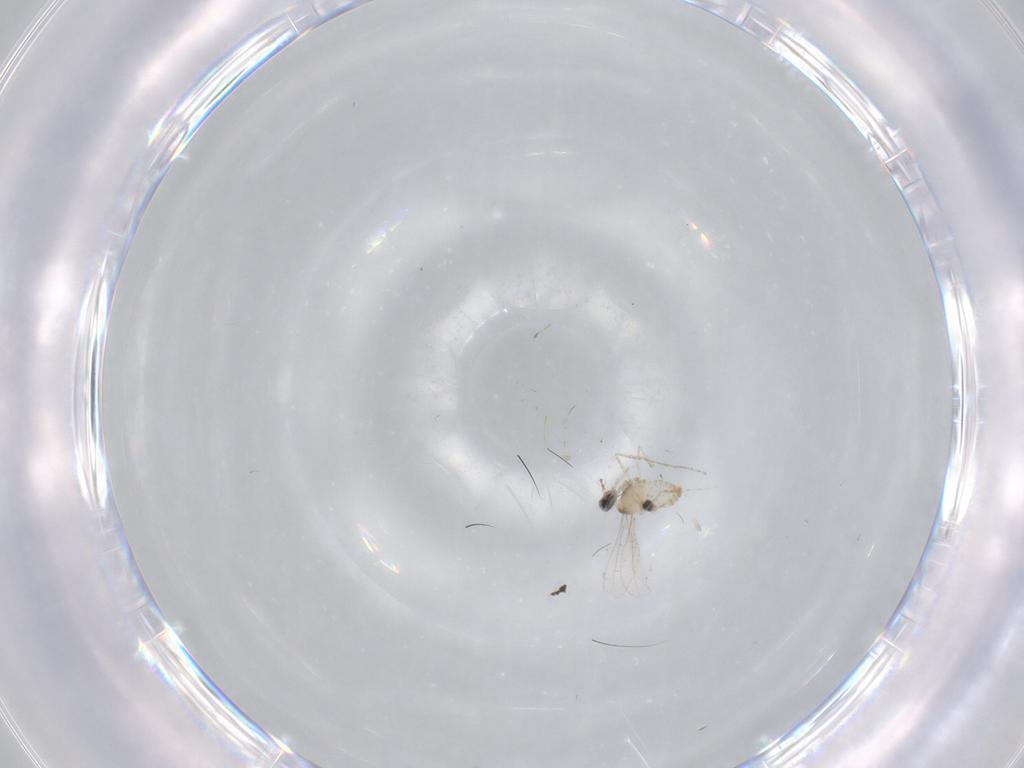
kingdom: Animalia
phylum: Arthropoda
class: Insecta
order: Diptera
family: Cecidomyiidae
